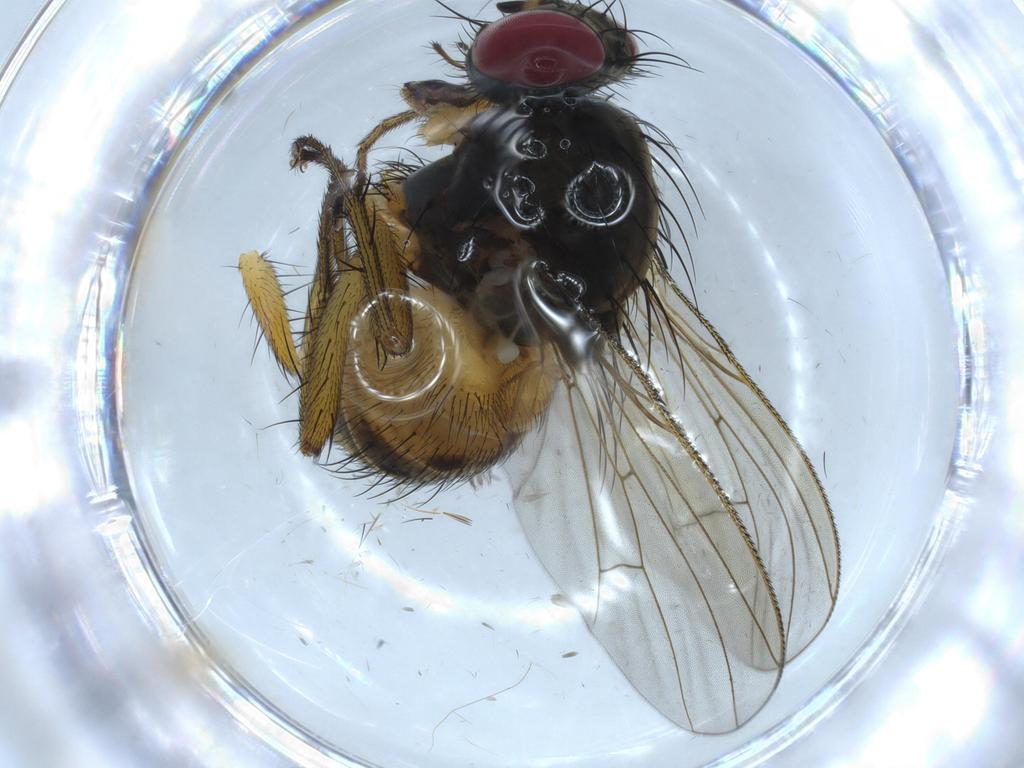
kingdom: Animalia
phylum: Arthropoda
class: Insecta
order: Diptera
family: Muscidae
